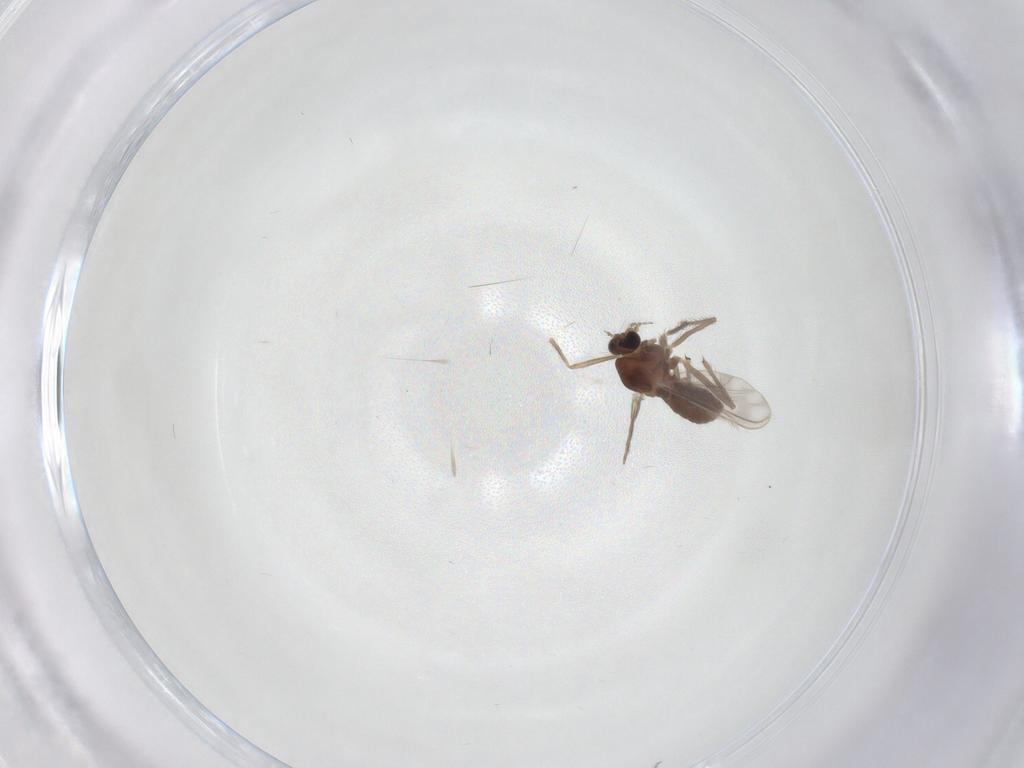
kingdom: Animalia
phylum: Arthropoda
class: Insecta
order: Diptera
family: Chironomidae
